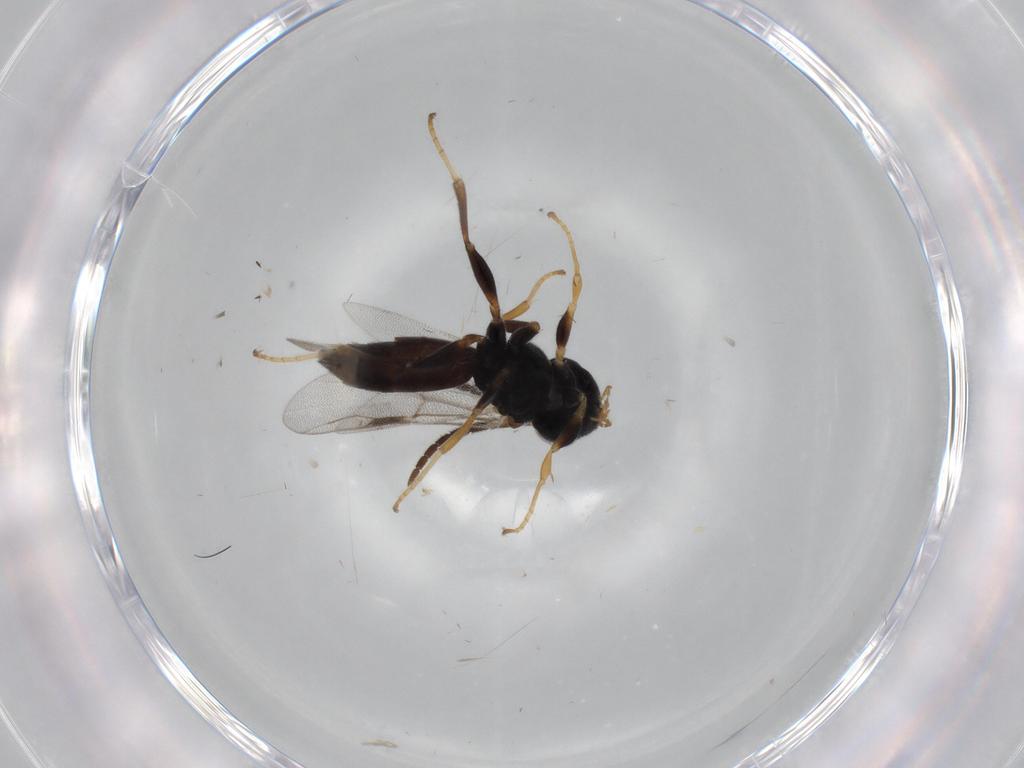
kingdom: Animalia
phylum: Arthropoda
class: Insecta
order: Hymenoptera
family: Dryinidae
